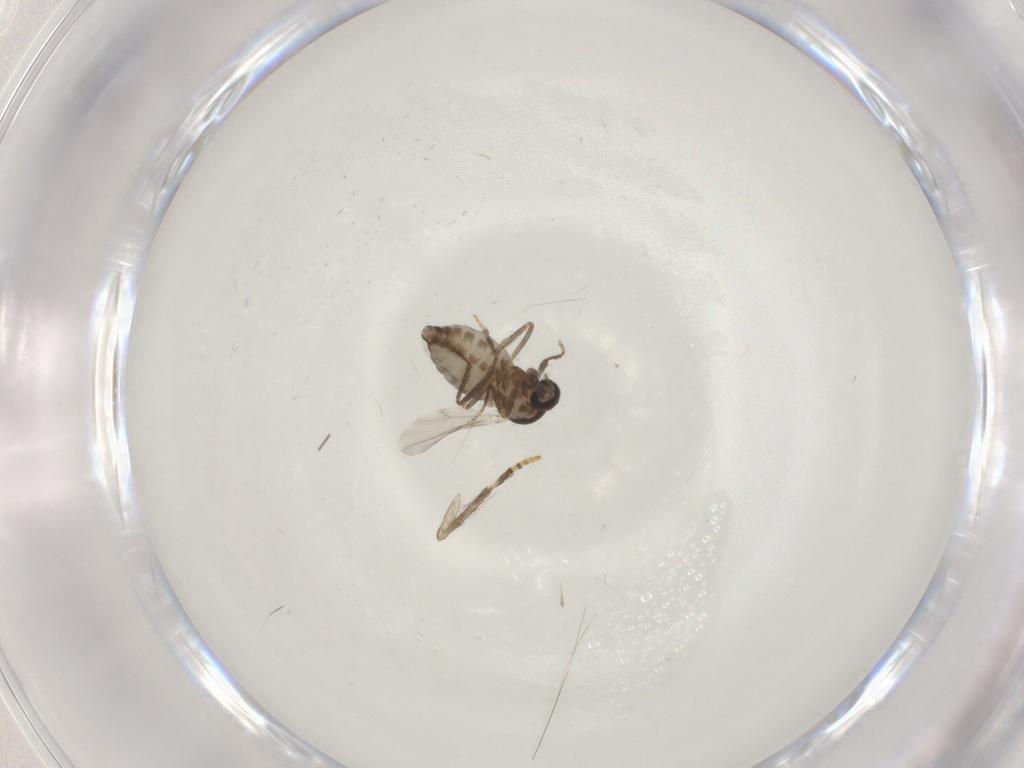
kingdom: Animalia
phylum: Arthropoda
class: Insecta
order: Diptera
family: Ceratopogonidae
